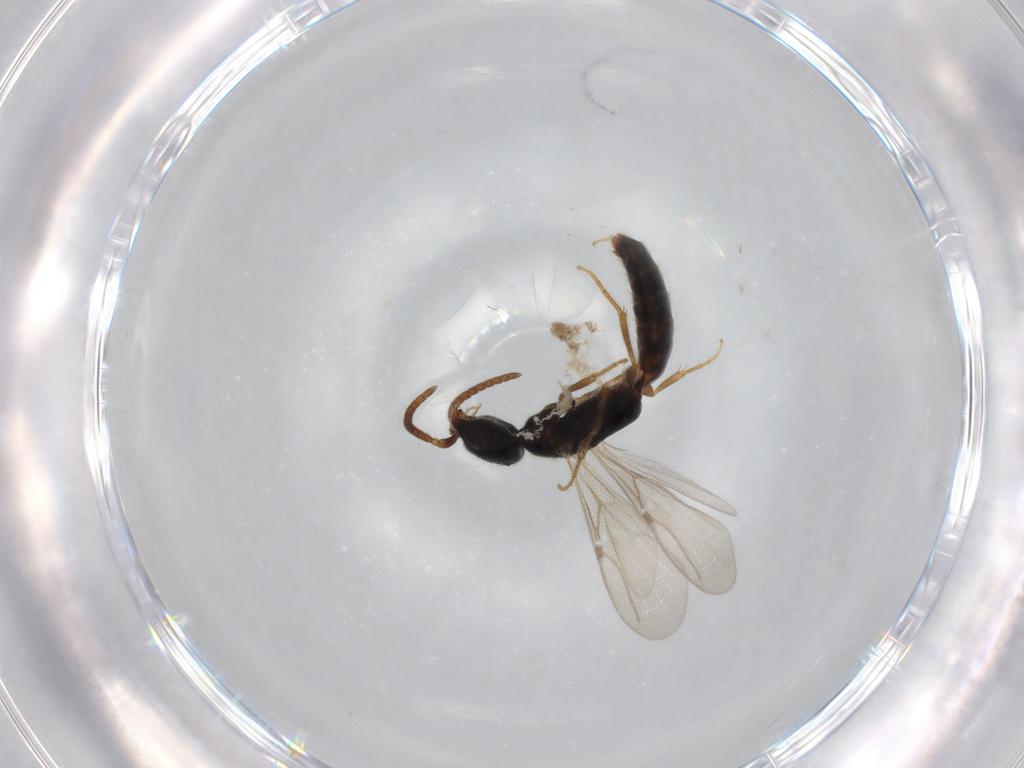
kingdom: Animalia
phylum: Arthropoda
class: Insecta
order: Hymenoptera
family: Bethylidae
